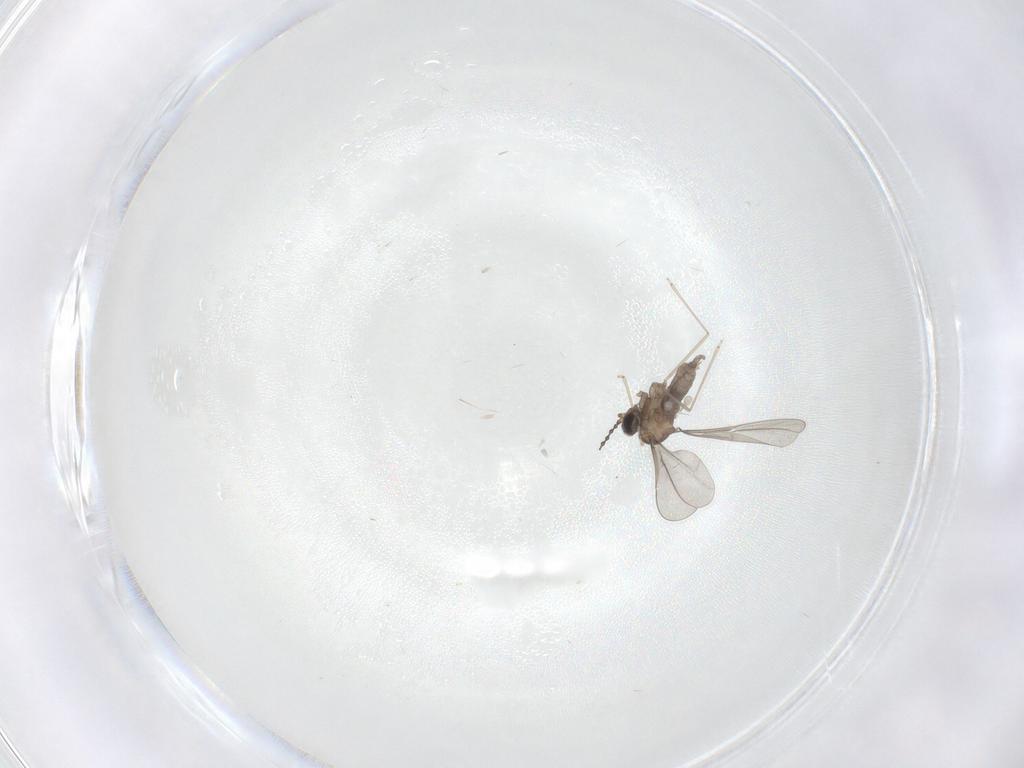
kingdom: Animalia
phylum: Arthropoda
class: Insecta
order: Diptera
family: Cecidomyiidae
